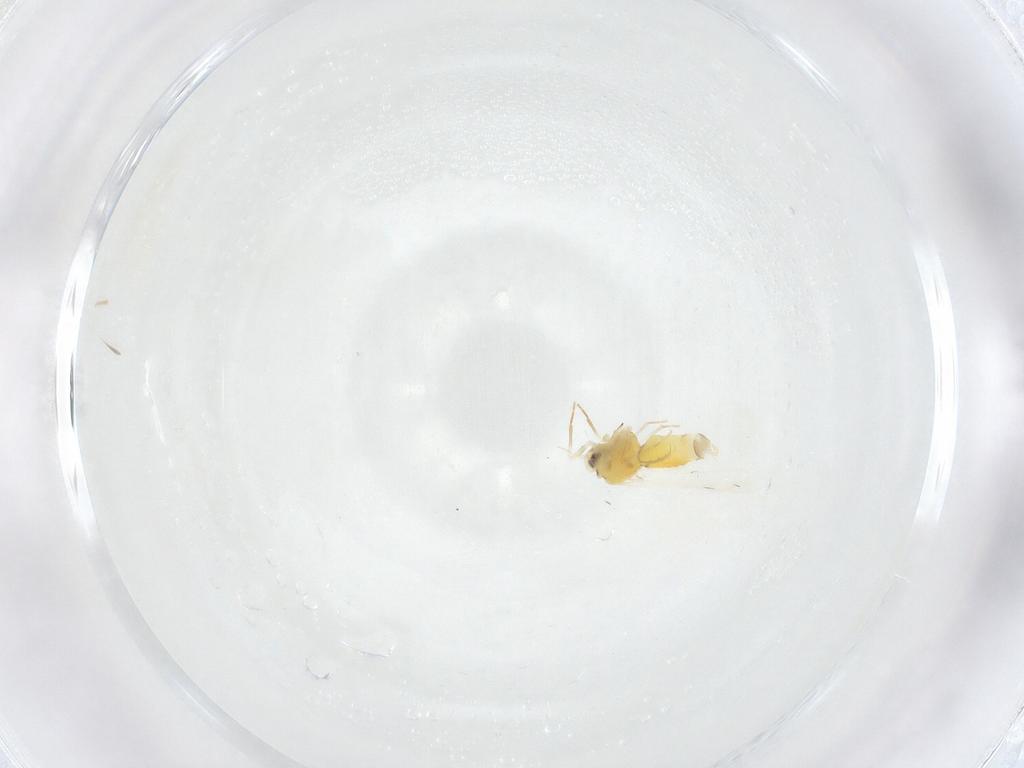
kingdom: Animalia
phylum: Arthropoda
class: Insecta
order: Hemiptera
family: Aleyrodidae
